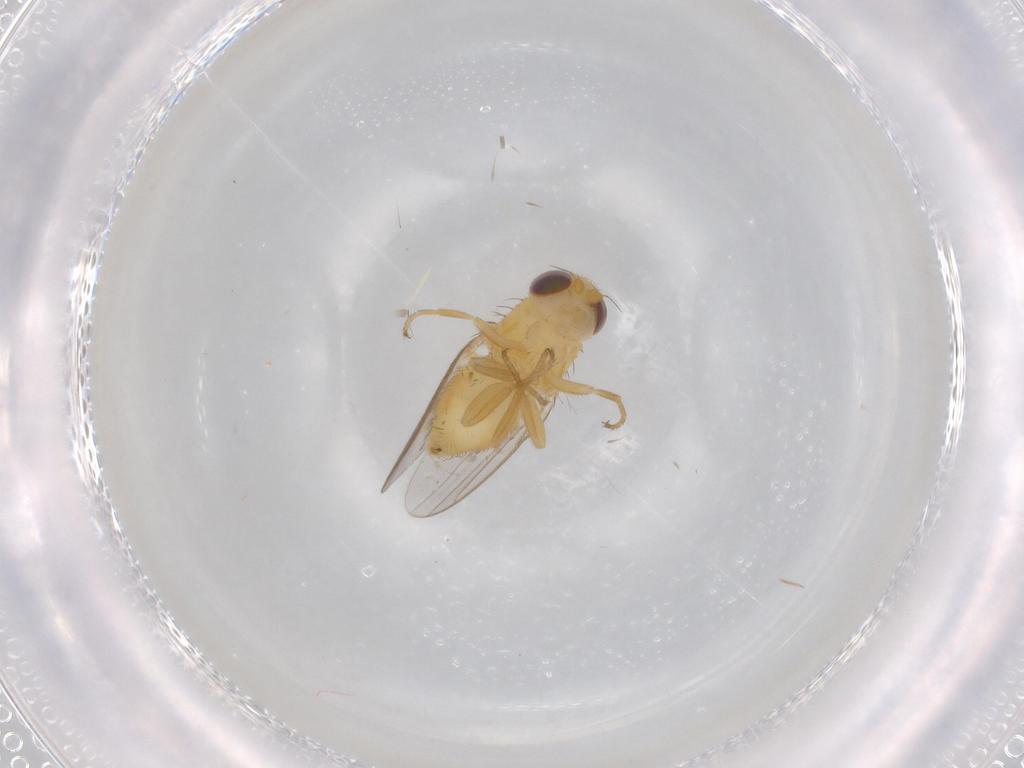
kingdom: Animalia
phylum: Arthropoda
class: Insecta
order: Diptera
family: Chloropidae
